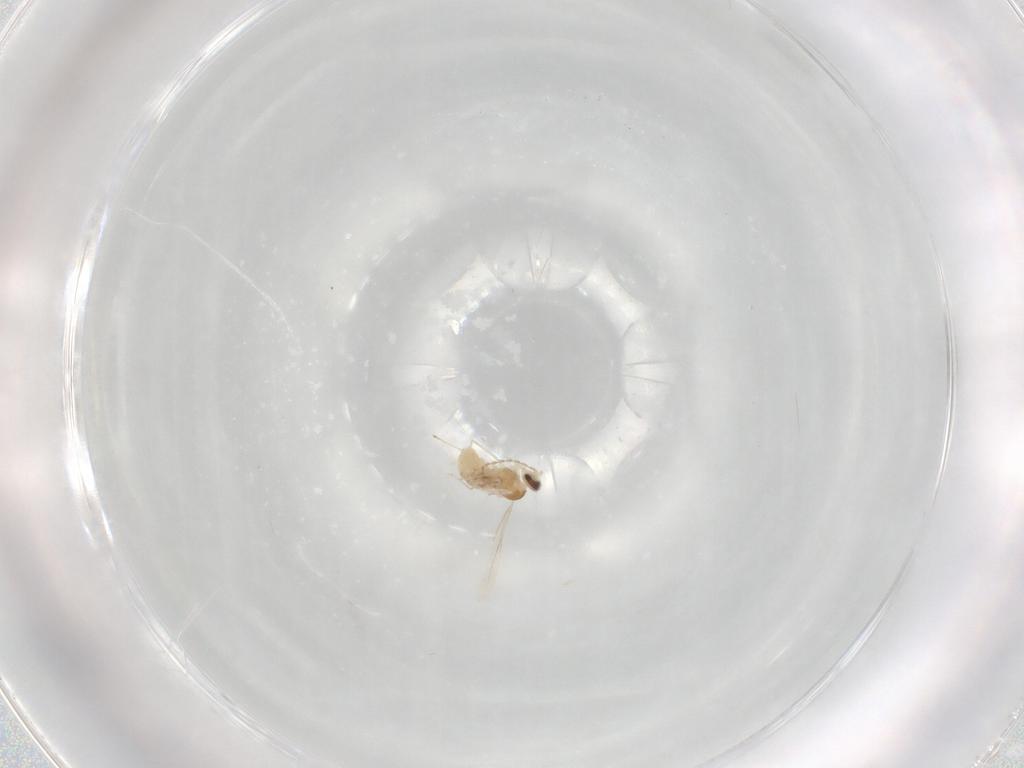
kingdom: Animalia
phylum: Arthropoda
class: Insecta
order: Diptera
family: Cecidomyiidae
